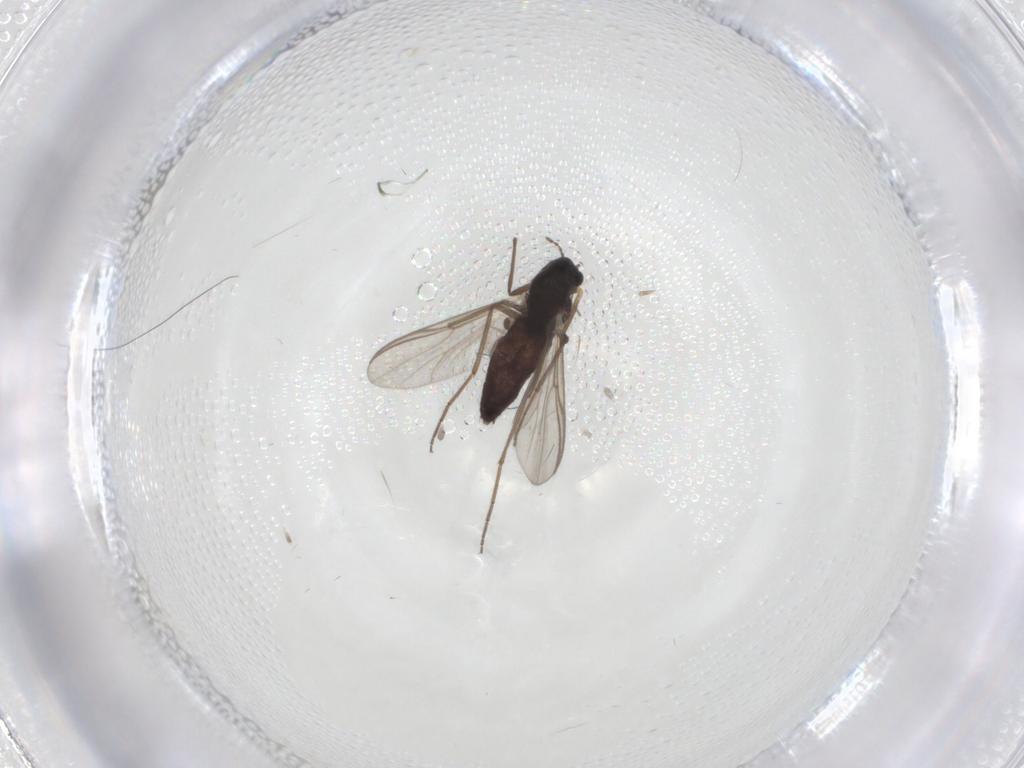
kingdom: Animalia
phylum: Arthropoda
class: Insecta
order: Diptera
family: Chironomidae
